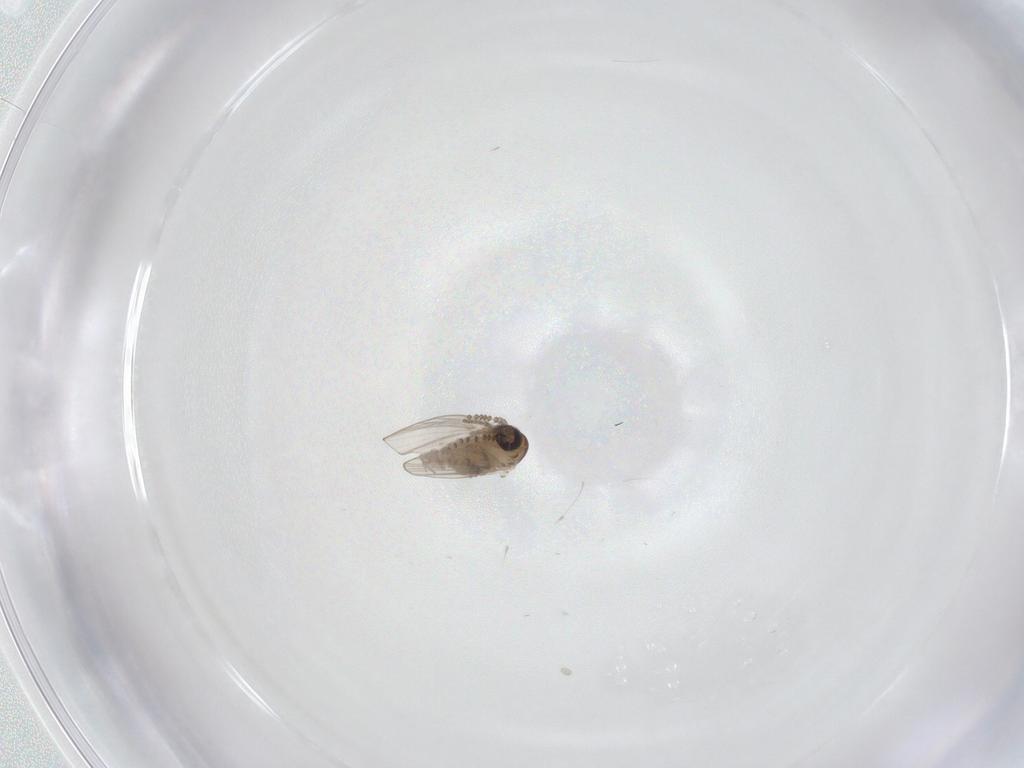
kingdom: Animalia
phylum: Arthropoda
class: Insecta
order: Diptera
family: Psychodidae
